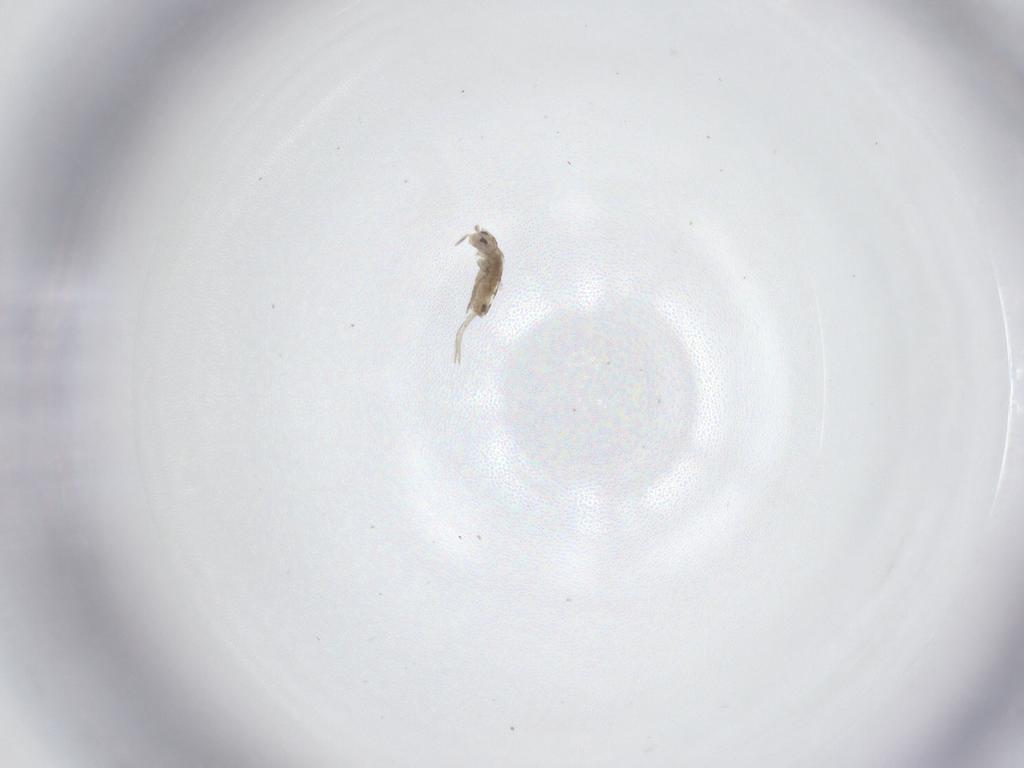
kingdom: Animalia
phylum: Arthropoda
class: Collembola
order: Entomobryomorpha
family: Entomobryidae
